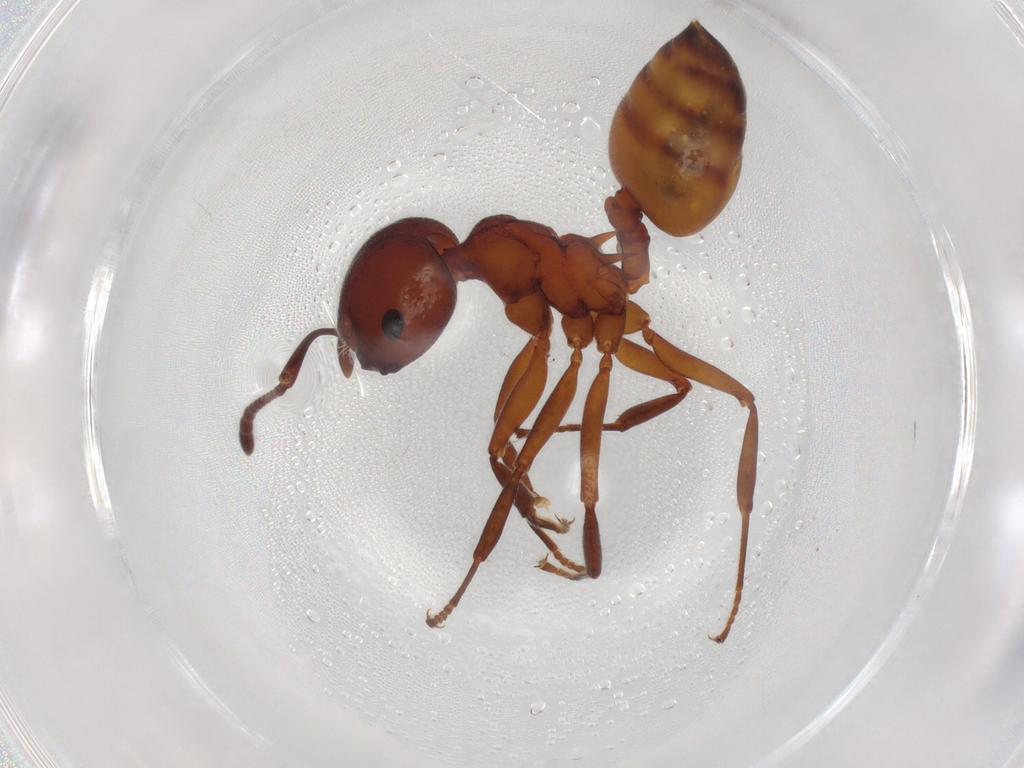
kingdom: Animalia
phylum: Arthropoda
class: Insecta
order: Hymenoptera
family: Formicidae
